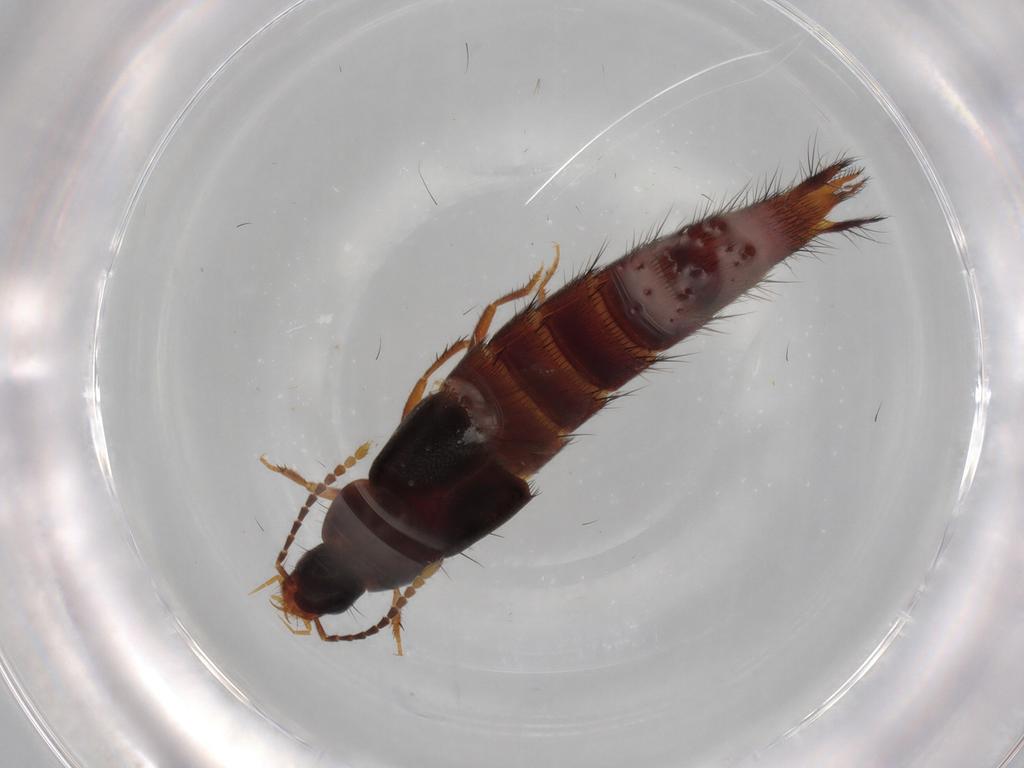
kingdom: Animalia
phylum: Arthropoda
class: Insecta
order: Coleoptera
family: Staphylinidae
